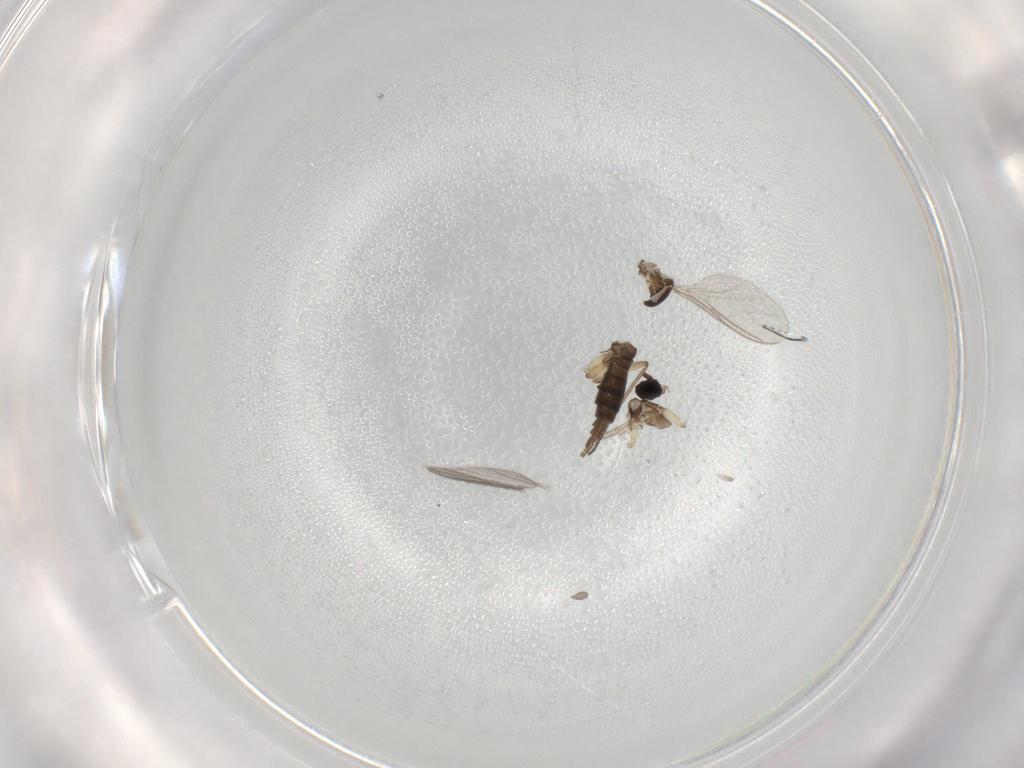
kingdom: Animalia
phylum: Arthropoda
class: Insecta
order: Diptera
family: Sciaridae
